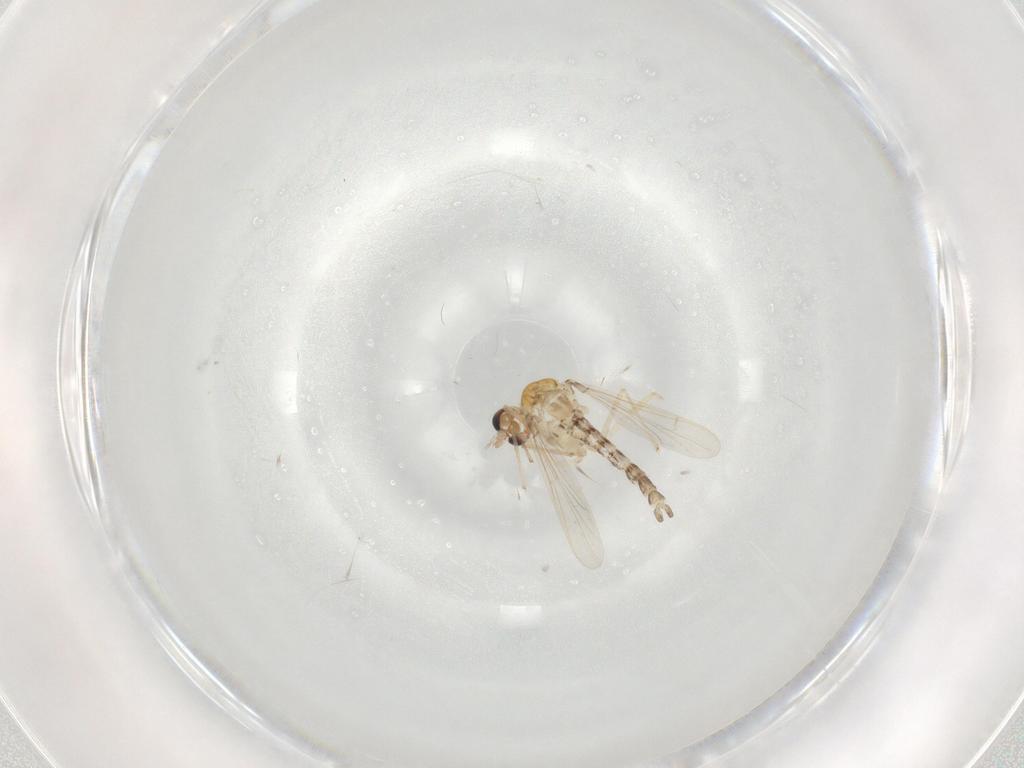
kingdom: Animalia
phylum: Arthropoda
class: Insecta
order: Diptera
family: Chironomidae
